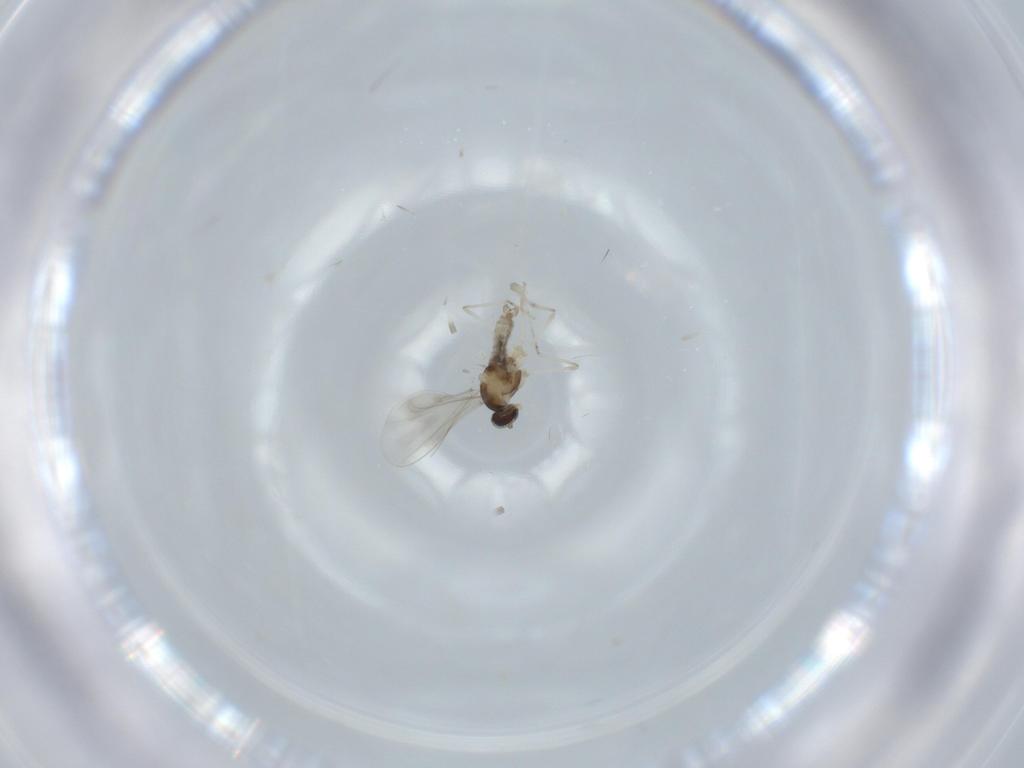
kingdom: Animalia
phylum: Arthropoda
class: Insecta
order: Diptera
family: Cecidomyiidae
